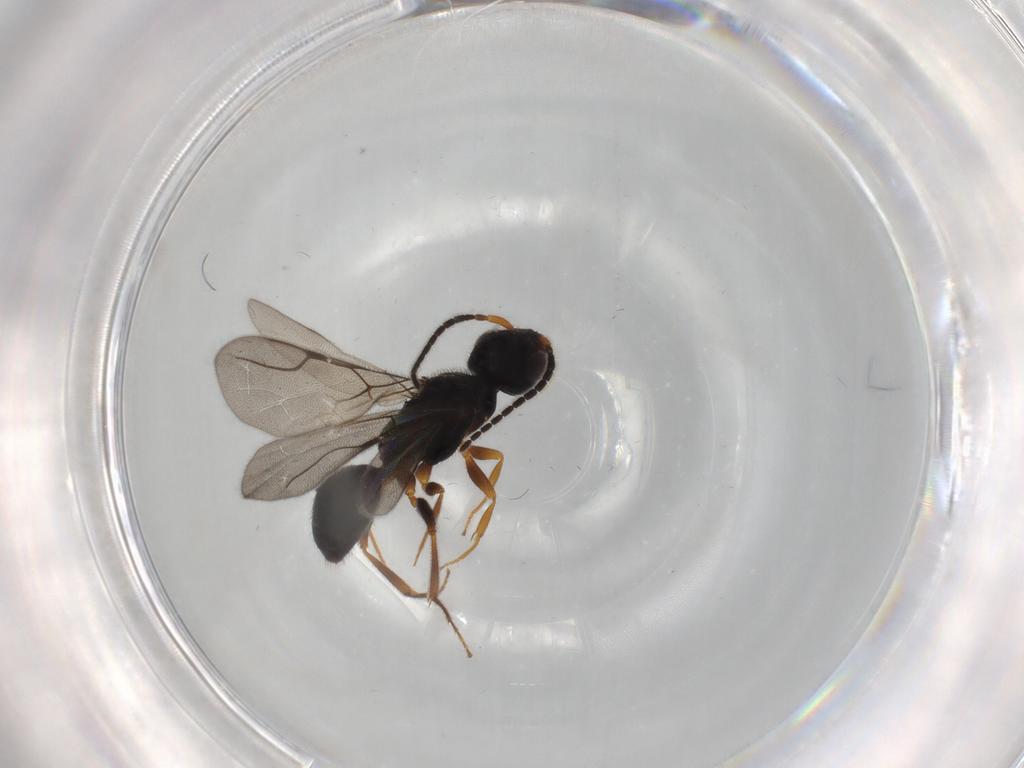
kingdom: Animalia
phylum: Arthropoda
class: Insecta
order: Hymenoptera
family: Bethylidae
